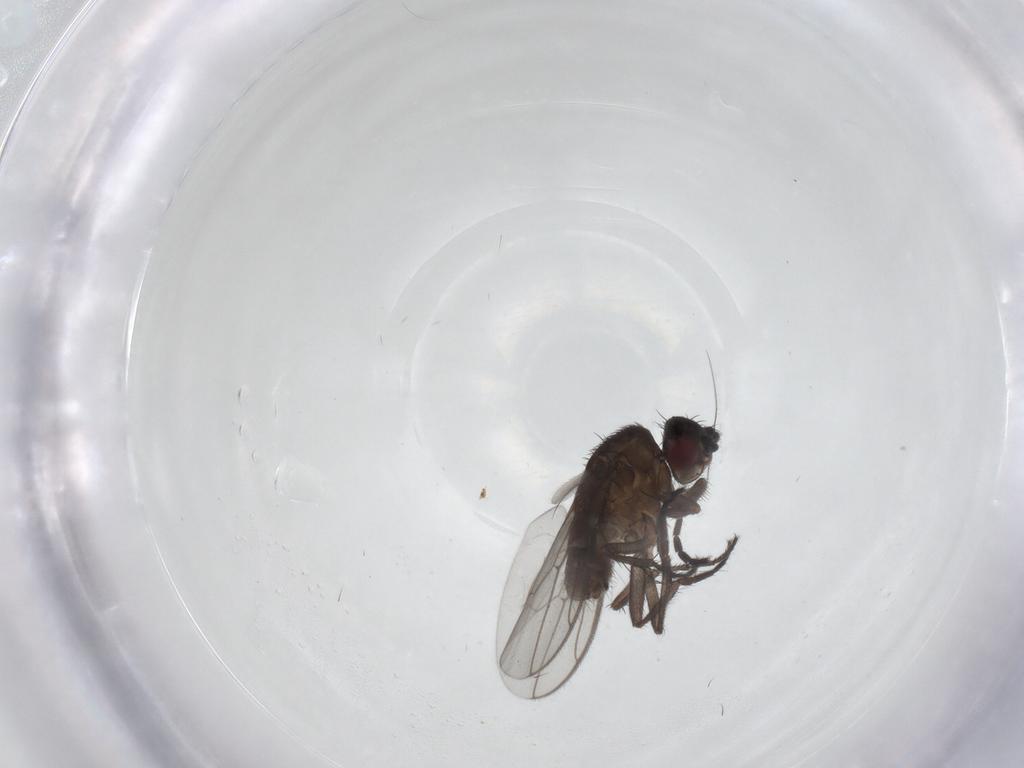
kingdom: Animalia
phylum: Arthropoda
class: Insecta
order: Diptera
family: Sphaeroceridae
